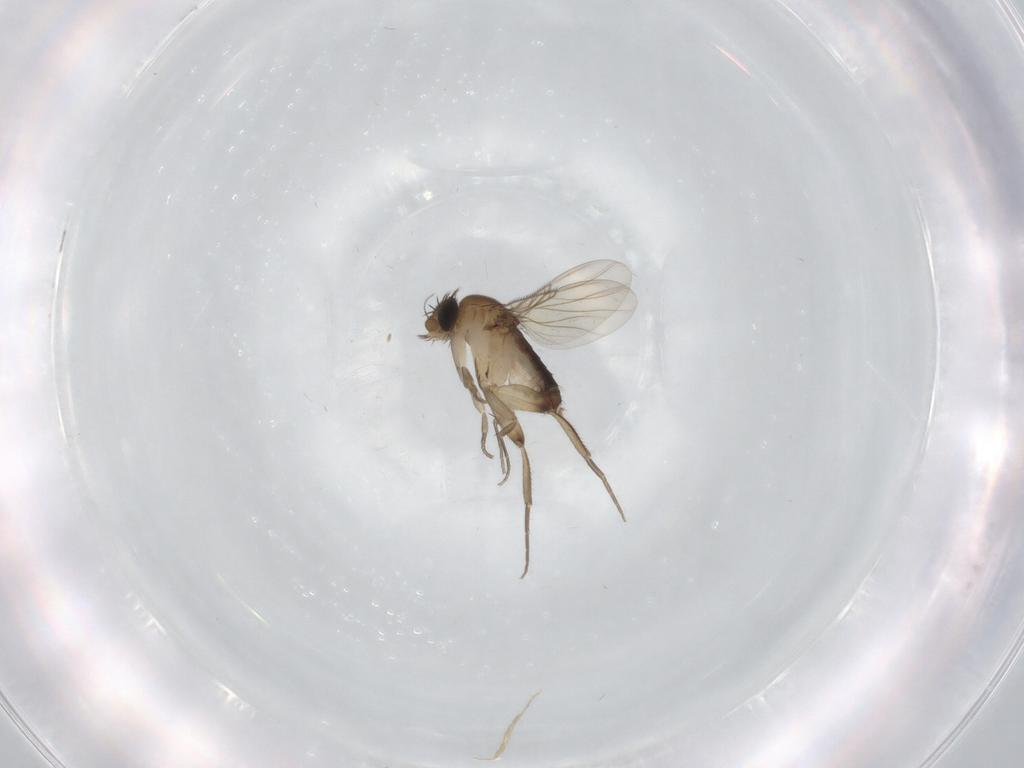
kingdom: Animalia
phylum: Arthropoda
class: Insecta
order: Diptera
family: Phoridae
